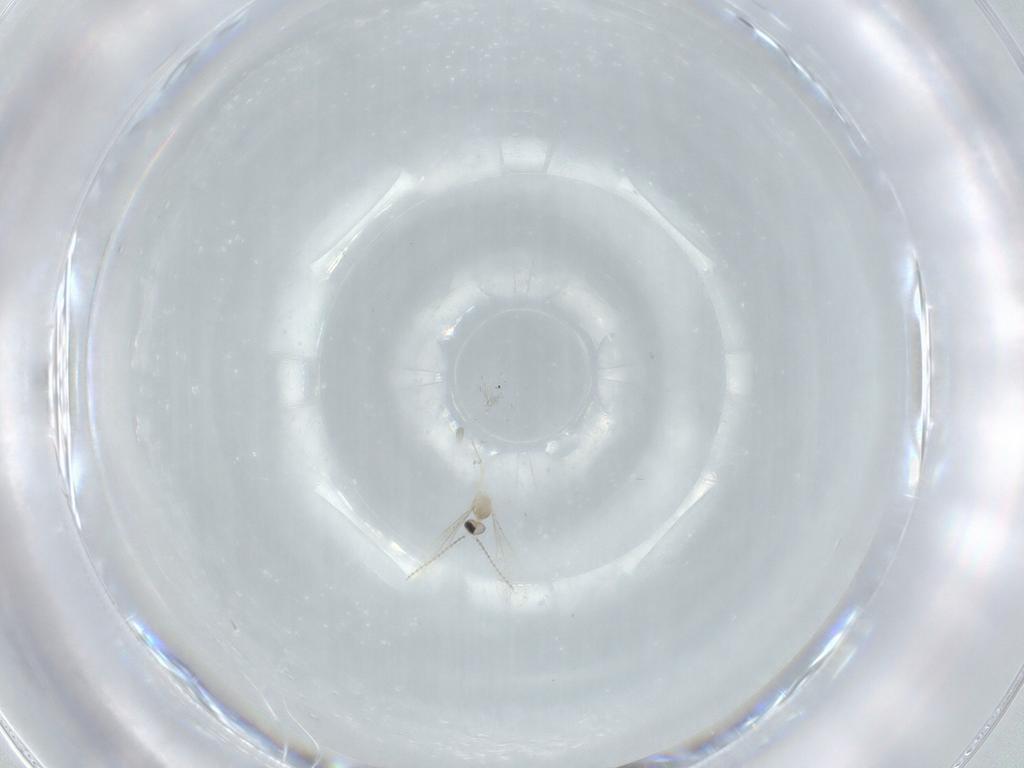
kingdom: Animalia
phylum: Arthropoda
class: Insecta
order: Diptera
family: Cecidomyiidae
